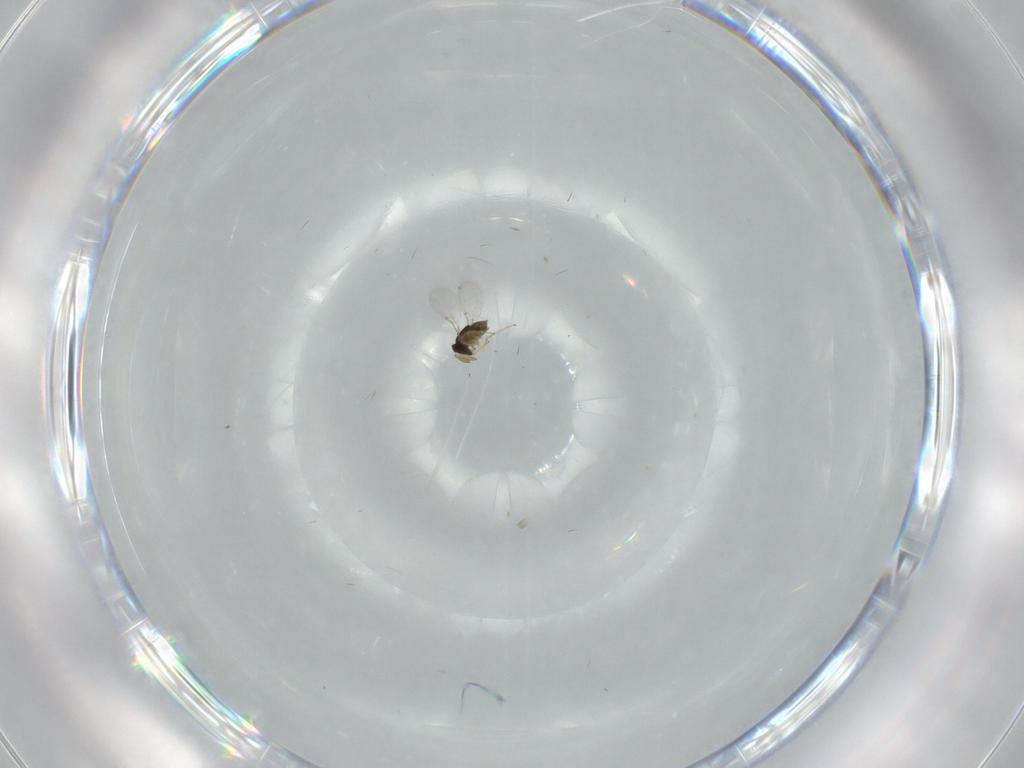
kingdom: Animalia
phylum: Arthropoda
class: Insecta
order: Hymenoptera
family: Encyrtidae
